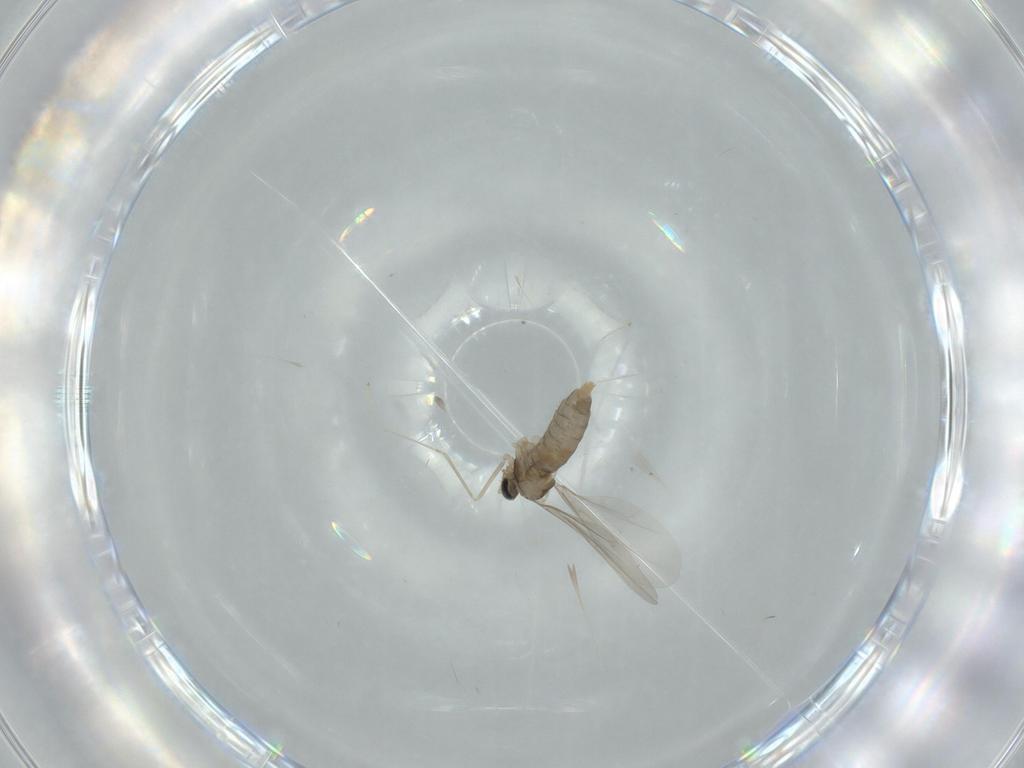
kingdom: Animalia
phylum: Arthropoda
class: Insecta
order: Diptera
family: Cecidomyiidae
